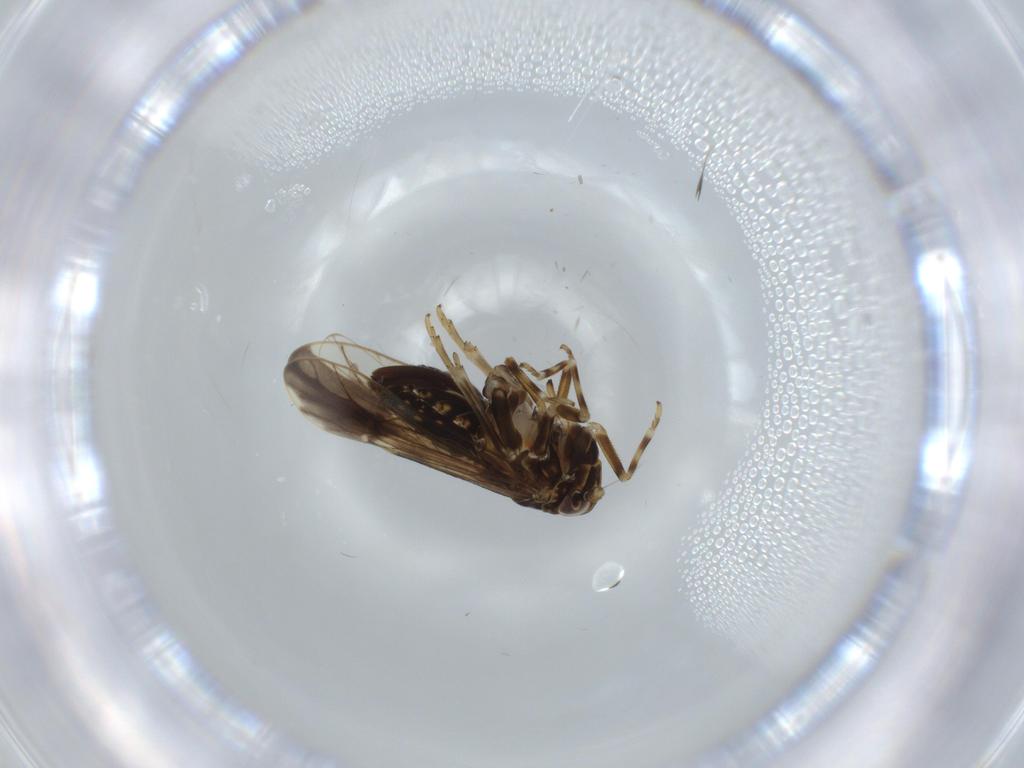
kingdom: Animalia
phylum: Arthropoda
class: Insecta
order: Hemiptera
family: Delphacidae
